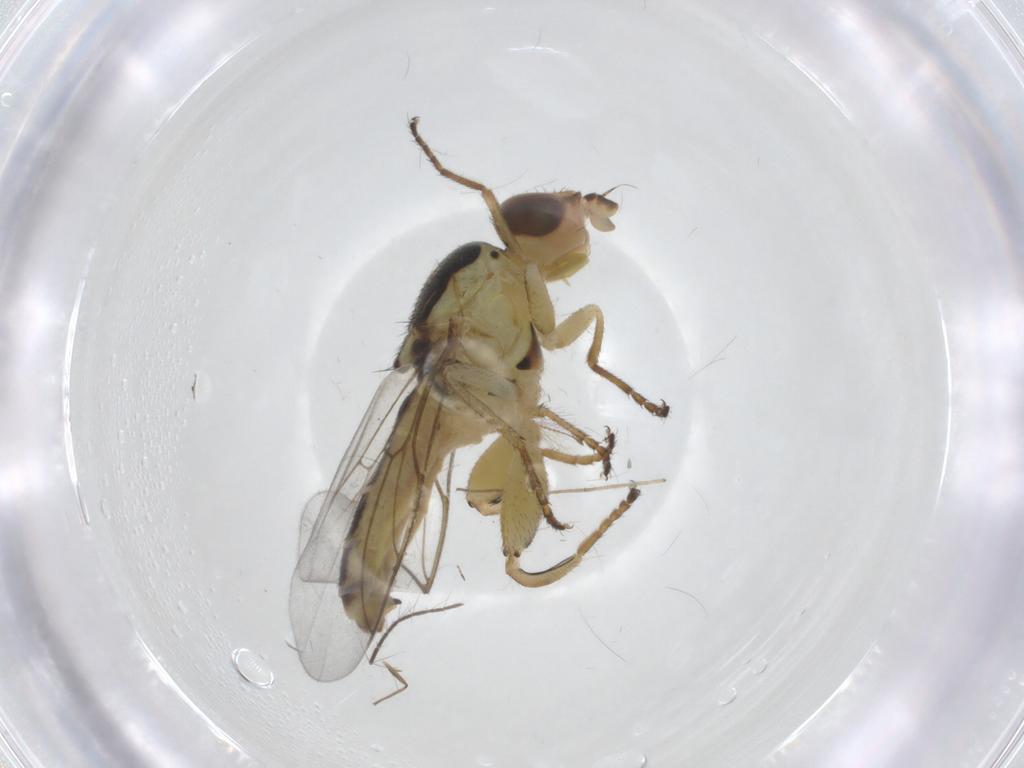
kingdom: Animalia
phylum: Arthropoda
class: Insecta
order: Diptera
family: Chloropidae
